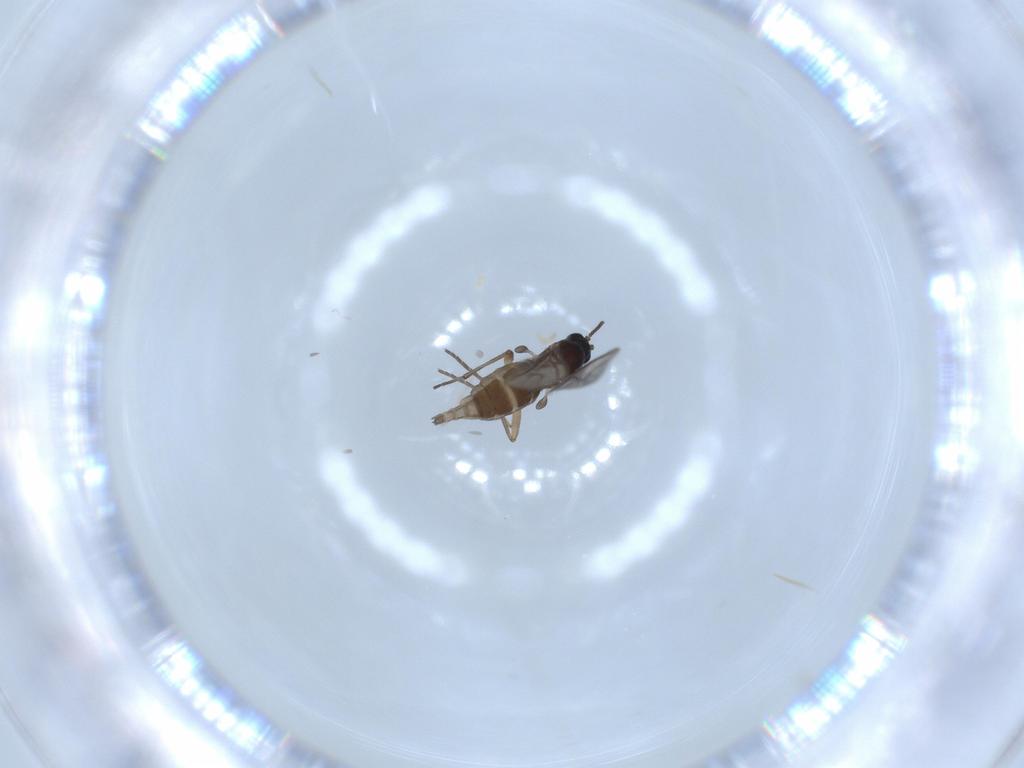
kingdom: Animalia
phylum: Arthropoda
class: Insecta
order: Diptera
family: Sciaridae
